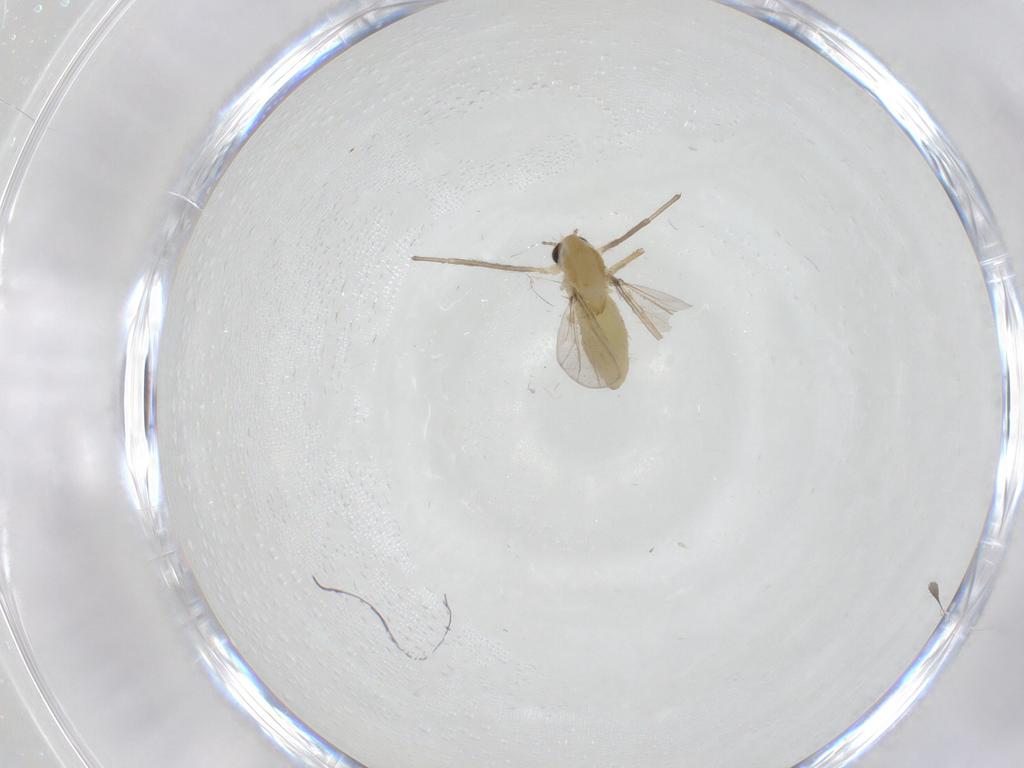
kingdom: Animalia
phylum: Arthropoda
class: Insecta
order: Diptera
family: Chironomidae
